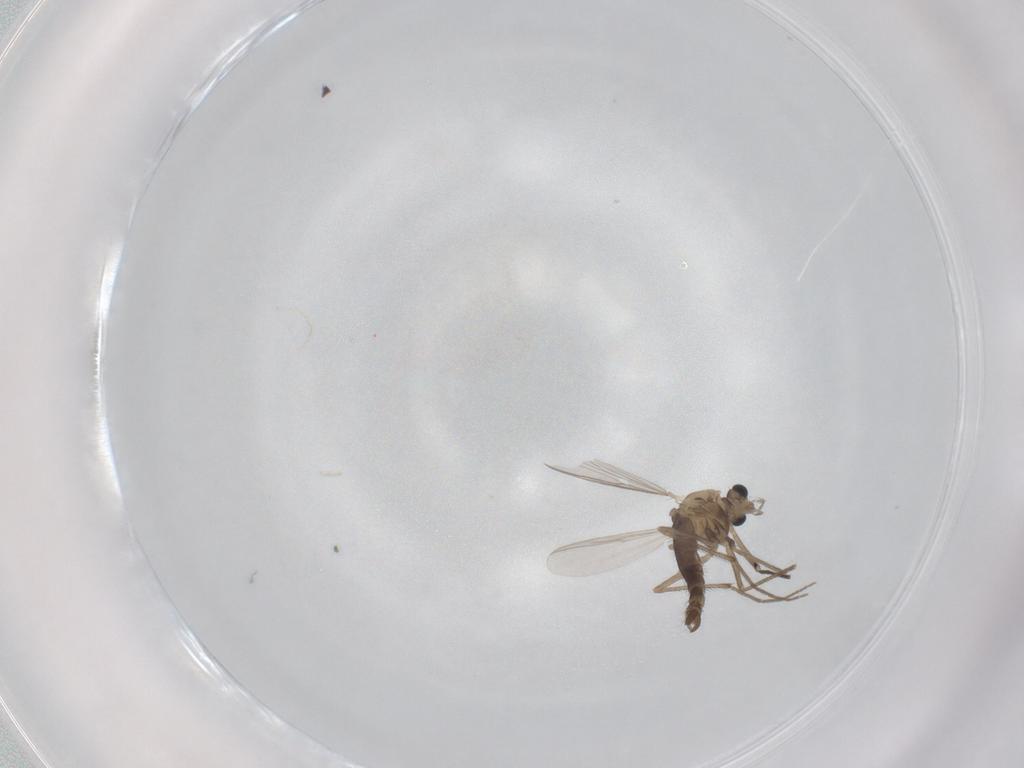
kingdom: Animalia
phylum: Arthropoda
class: Insecta
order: Diptera
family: Chironomidae
